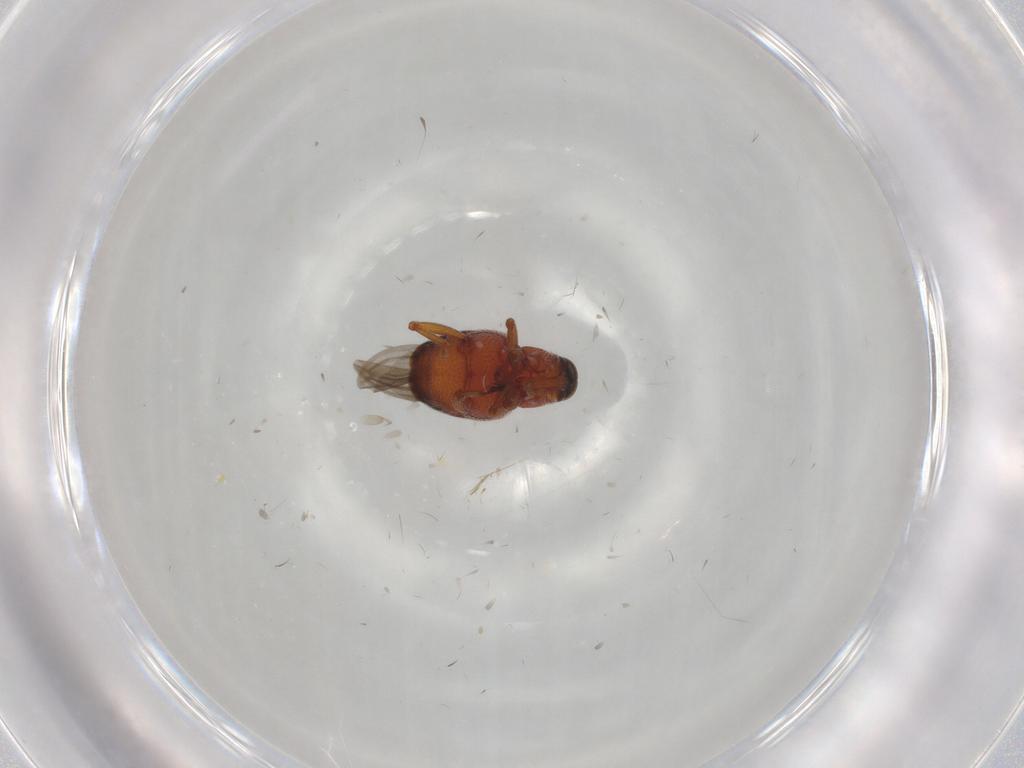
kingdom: Animalia
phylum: Arthropoda
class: Insecta
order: Coleoptera
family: Curculionidae
